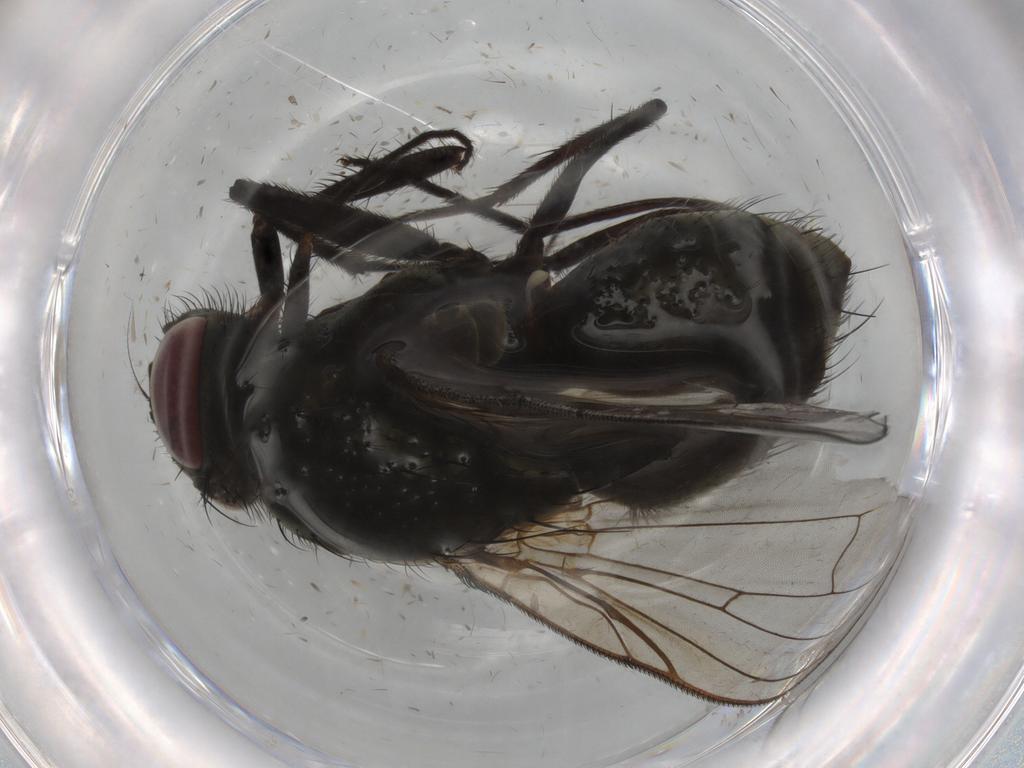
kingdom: Animalia
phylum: Arthropoda
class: Insecta
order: Diptera
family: Muscidae
